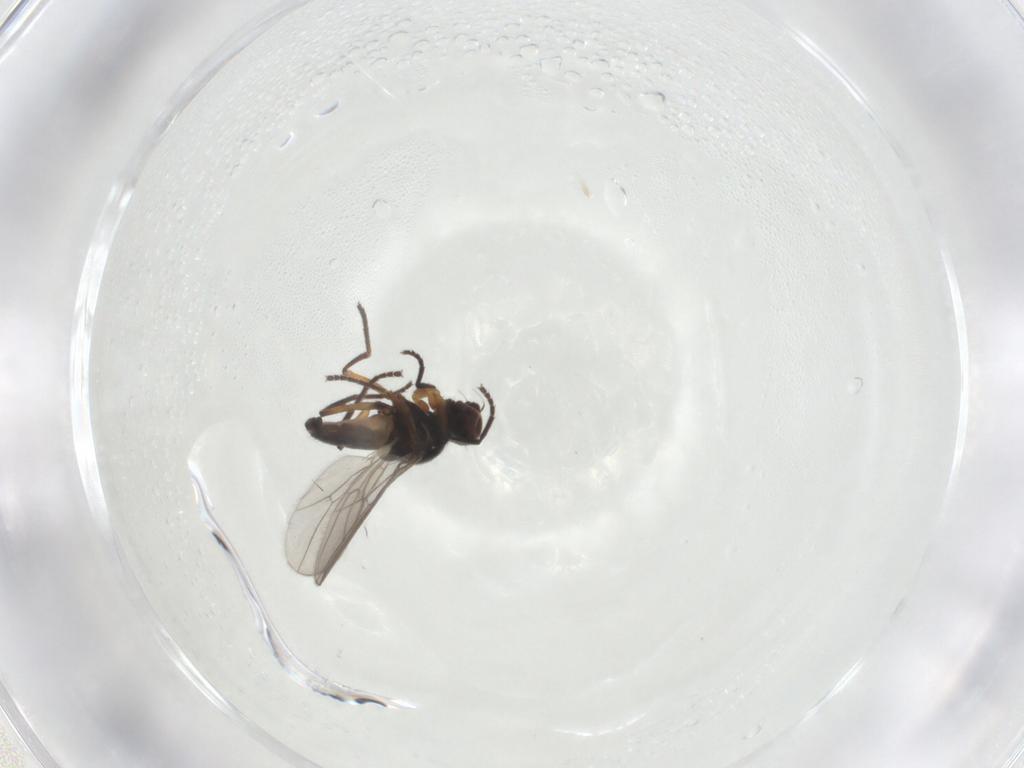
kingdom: Animalia
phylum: Arthropoda
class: Insecta
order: Diptera
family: Chloropidae
